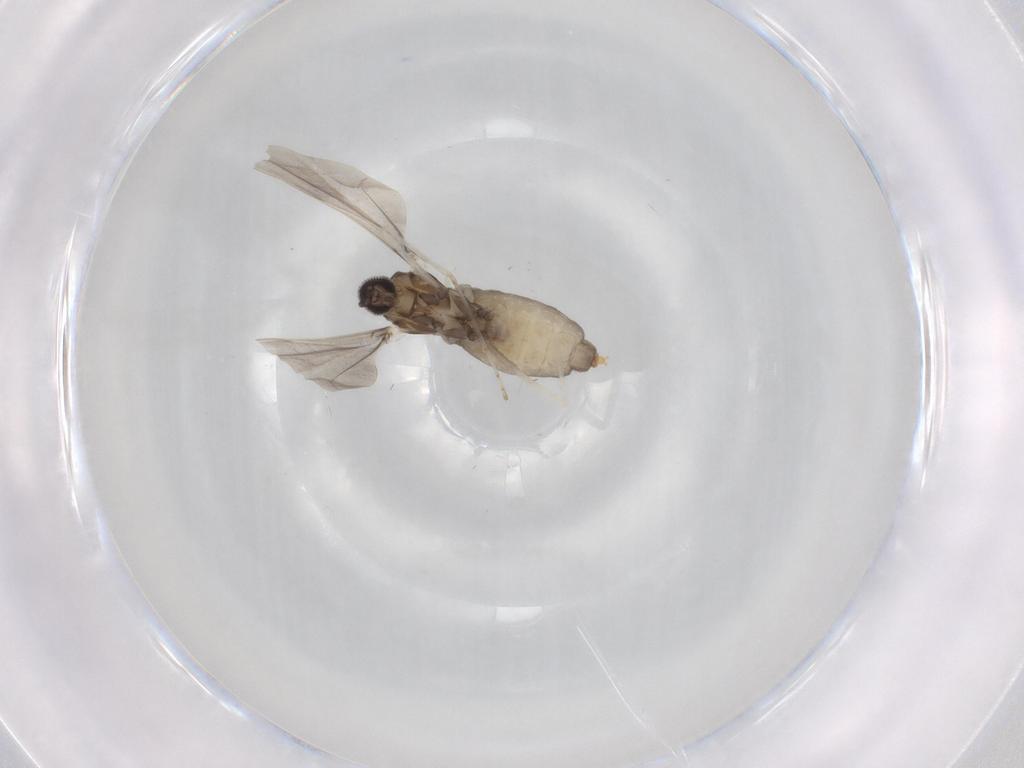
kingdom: Animalia
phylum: Arthropoda
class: Insecta
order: Diptera
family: Cecidomyiidae
